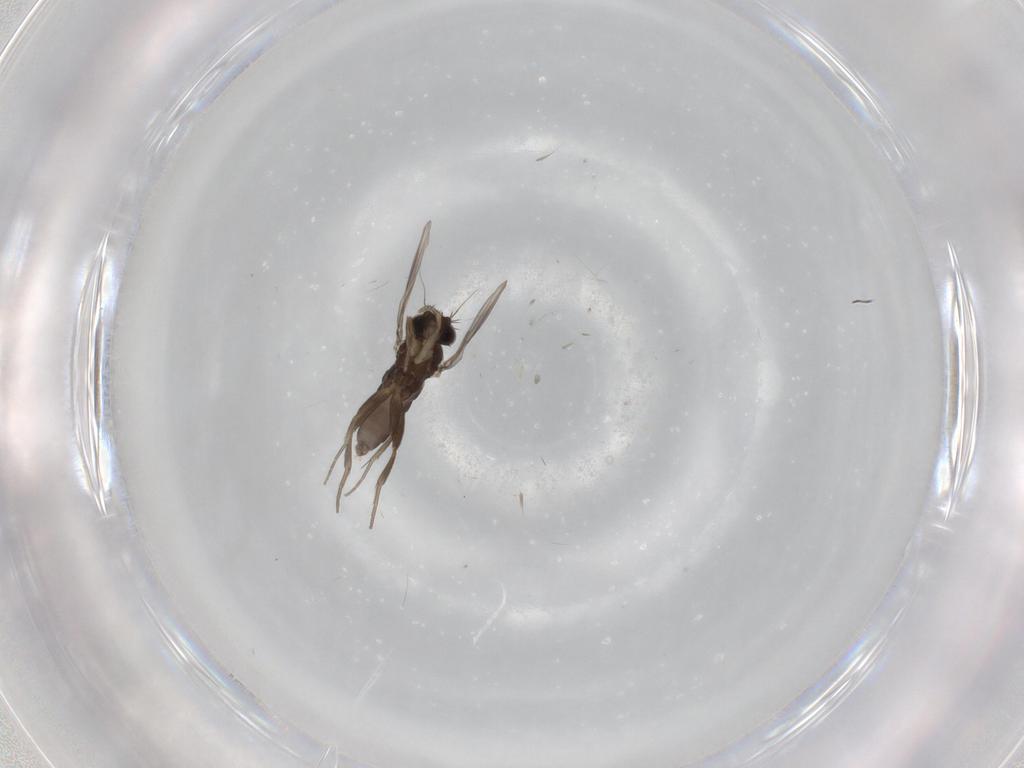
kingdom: Animalia
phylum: Arthropoda
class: Insecta
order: Diptera
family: Phoridae
